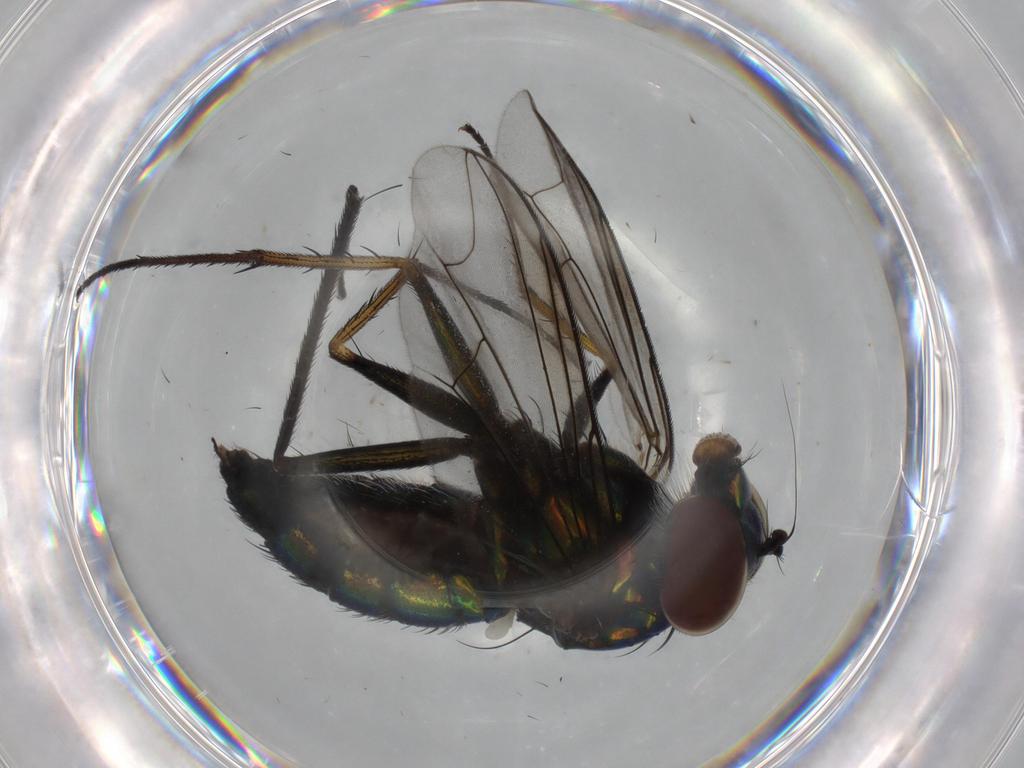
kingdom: Animalia
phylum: Arthropoda
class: Insecta
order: Diptera
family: Dolichopodidae
